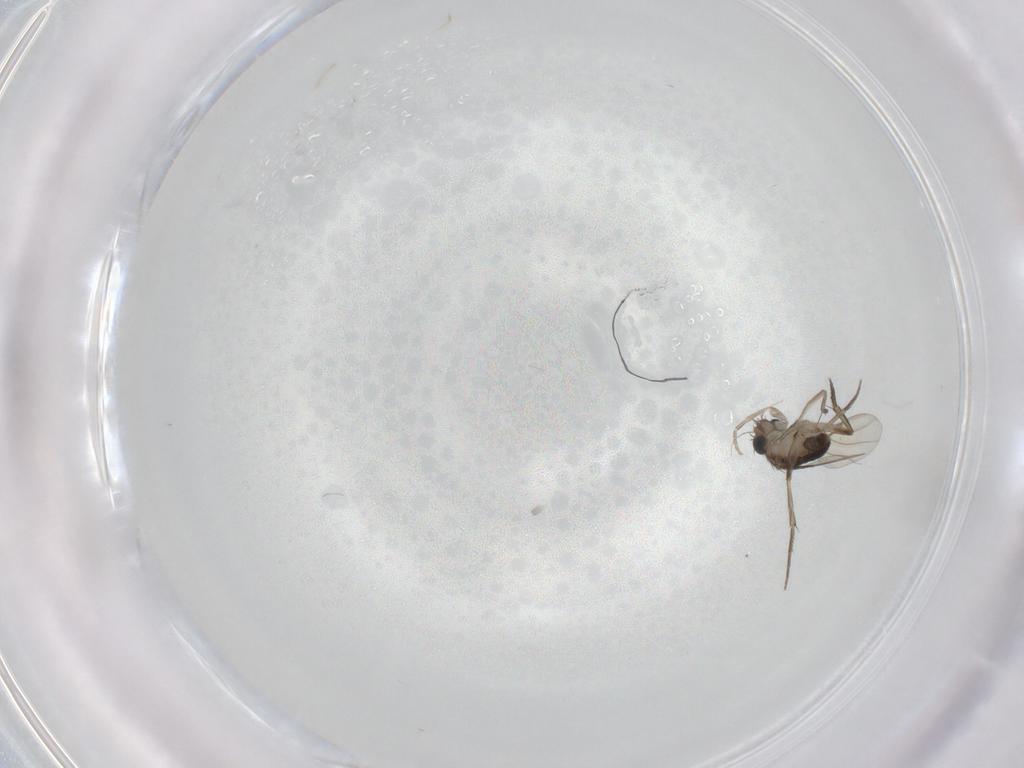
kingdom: Animalia
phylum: Arthropoda
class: Insecta
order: Diptera
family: Phoridae
